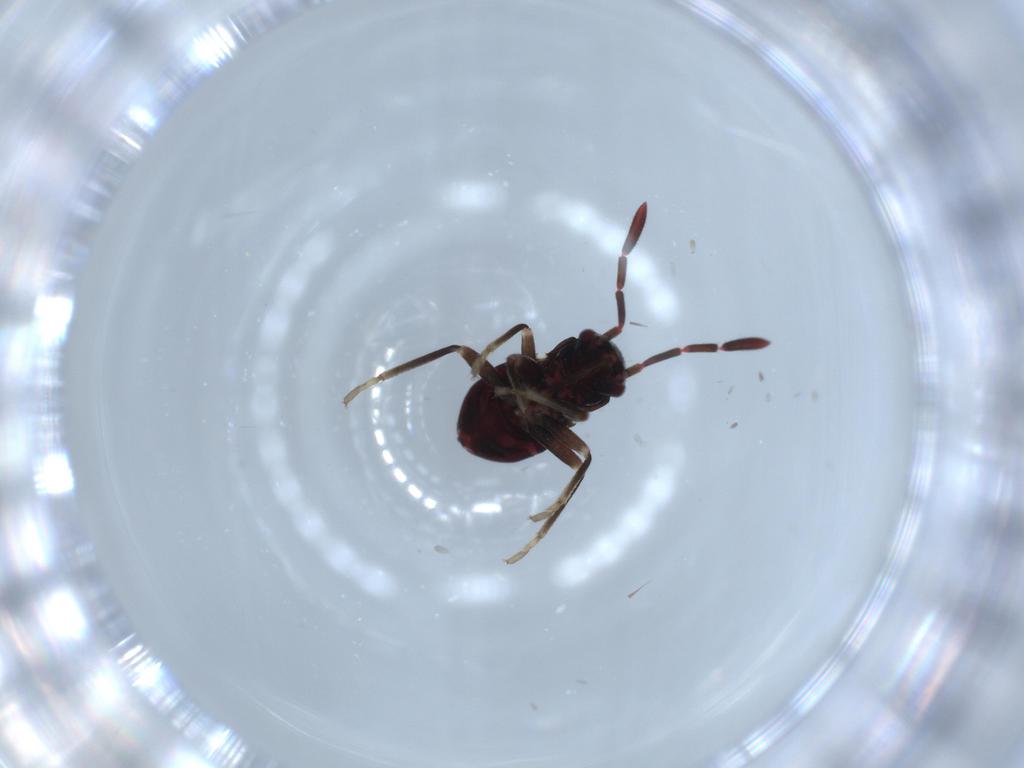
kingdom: Animalia
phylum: Arthropoda
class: Insecta
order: Hemiptera
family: Rhyparochromidae
